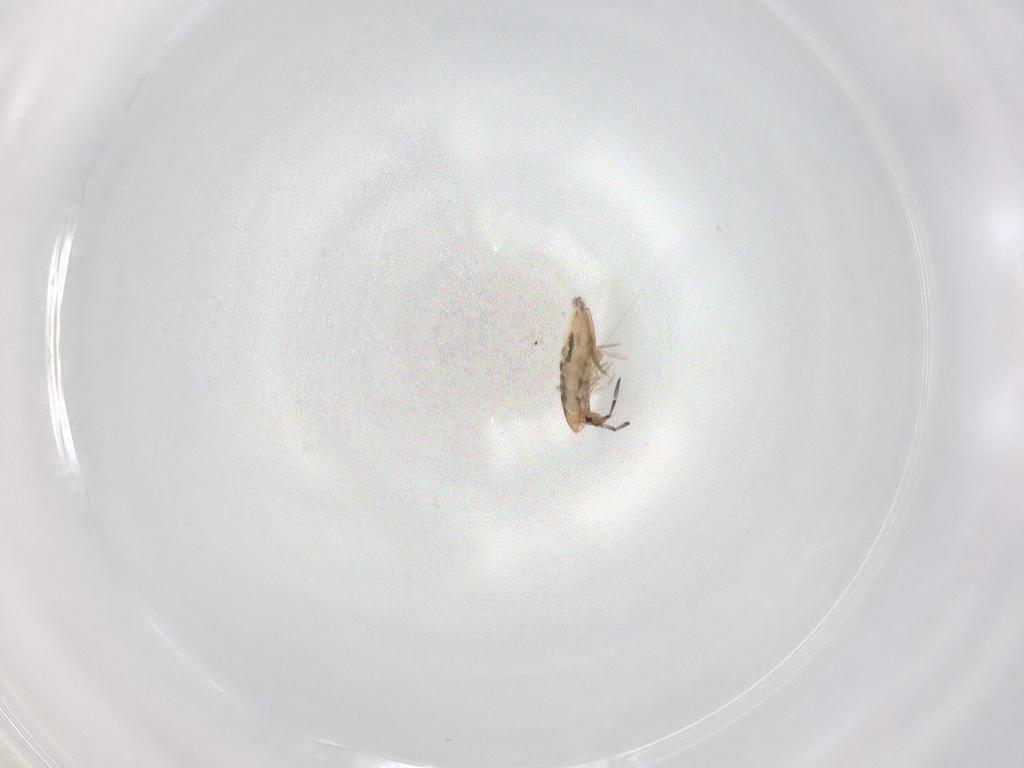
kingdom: Animalia
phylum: Arthropoda
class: Collembola
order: Entomobryomorpha
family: Entomobryidae
